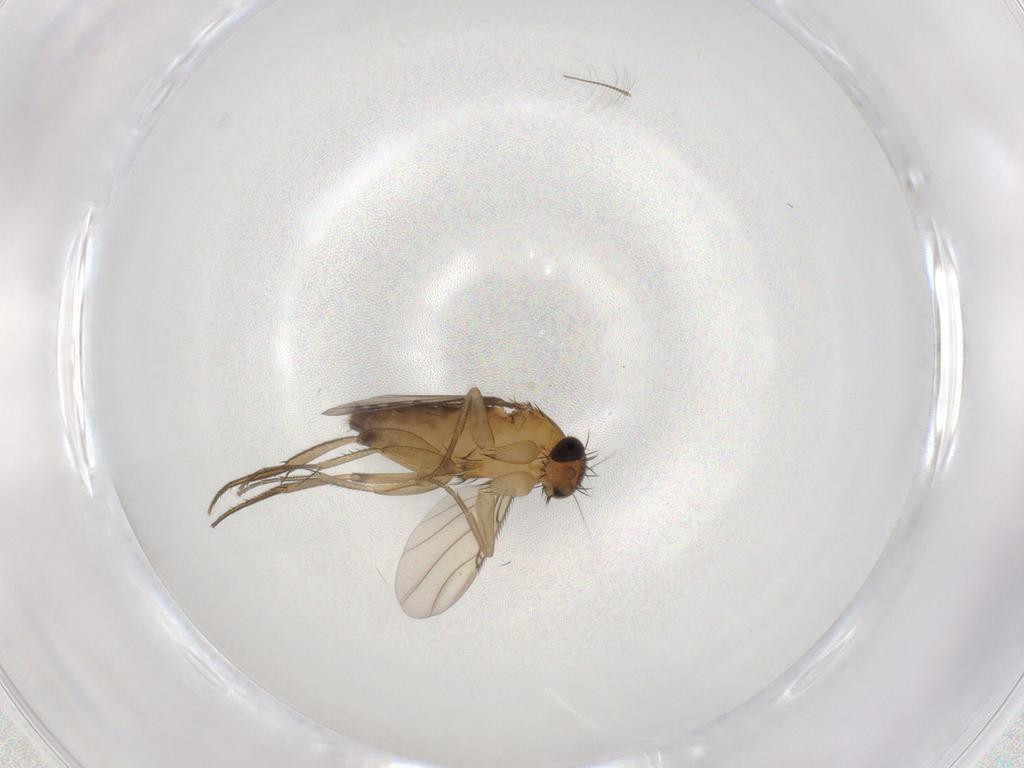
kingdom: Animalia
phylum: Arthropoda
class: Insecta
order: Diptera
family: Phoridae
